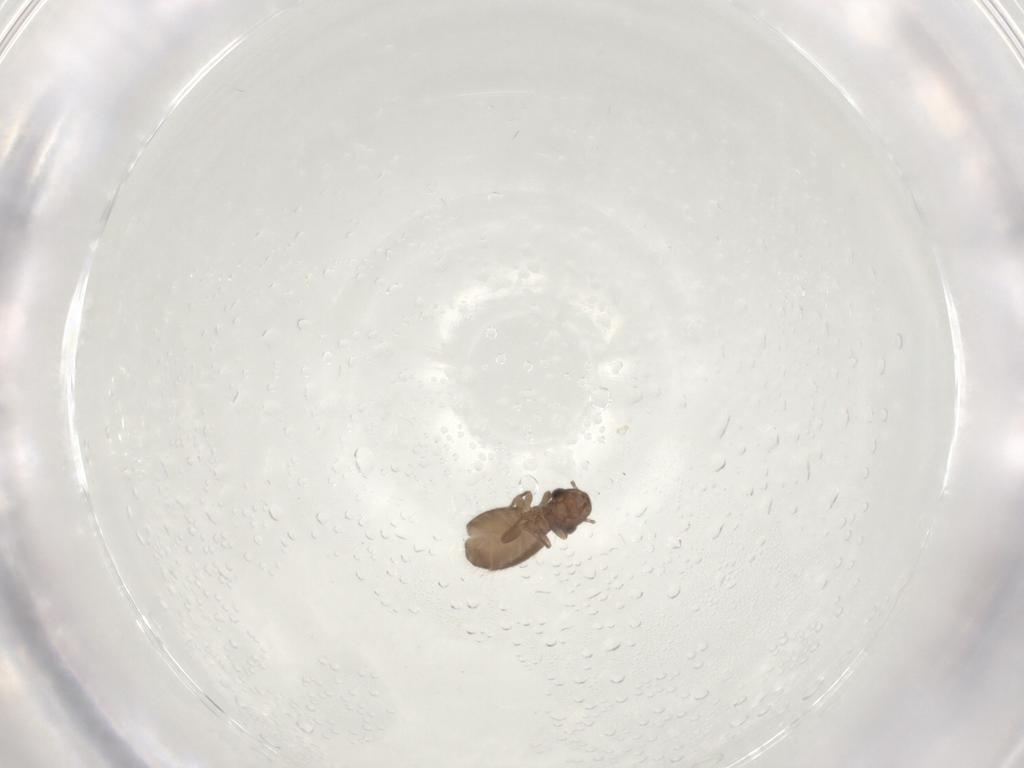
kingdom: Animalia
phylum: Arthropoda
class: Insecta
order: Psocodea
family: Trogiidae
